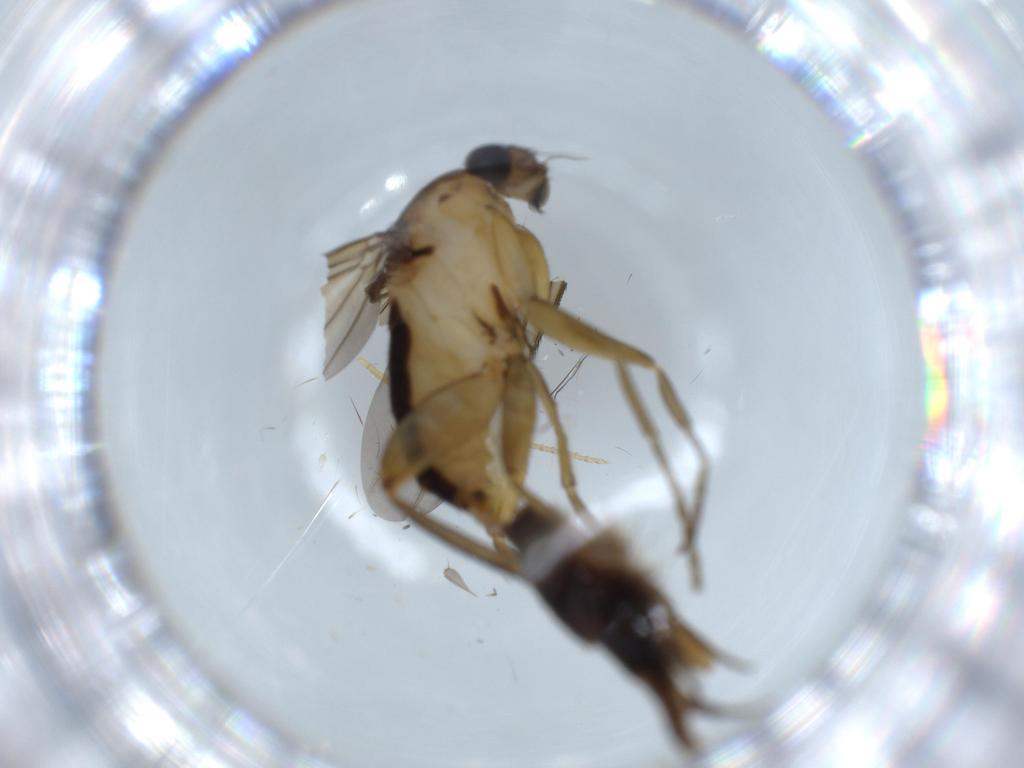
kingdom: Animalia
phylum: Arthropoda
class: Insecta
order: Diptera
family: Phoridae
